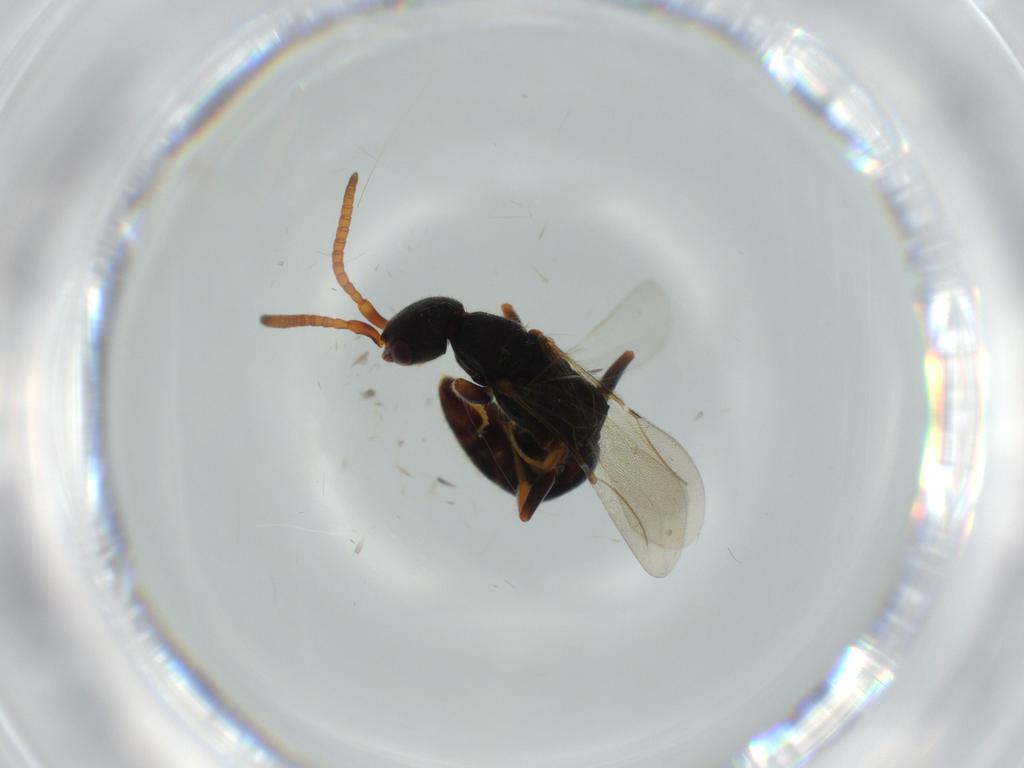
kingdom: Animalia
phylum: Arthropoda
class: Insecta
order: Hymenoptera
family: Bethylidae
